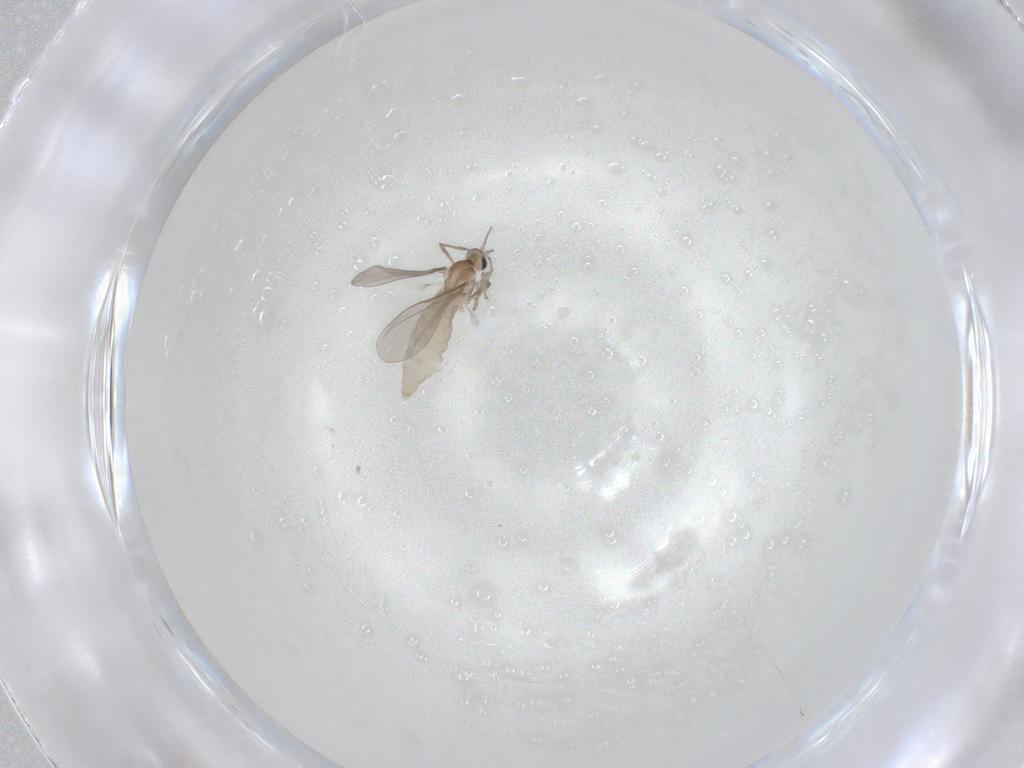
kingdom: Animalia
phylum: Arthropoda
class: Insecta
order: Diptera
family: Cecidomyiidae
